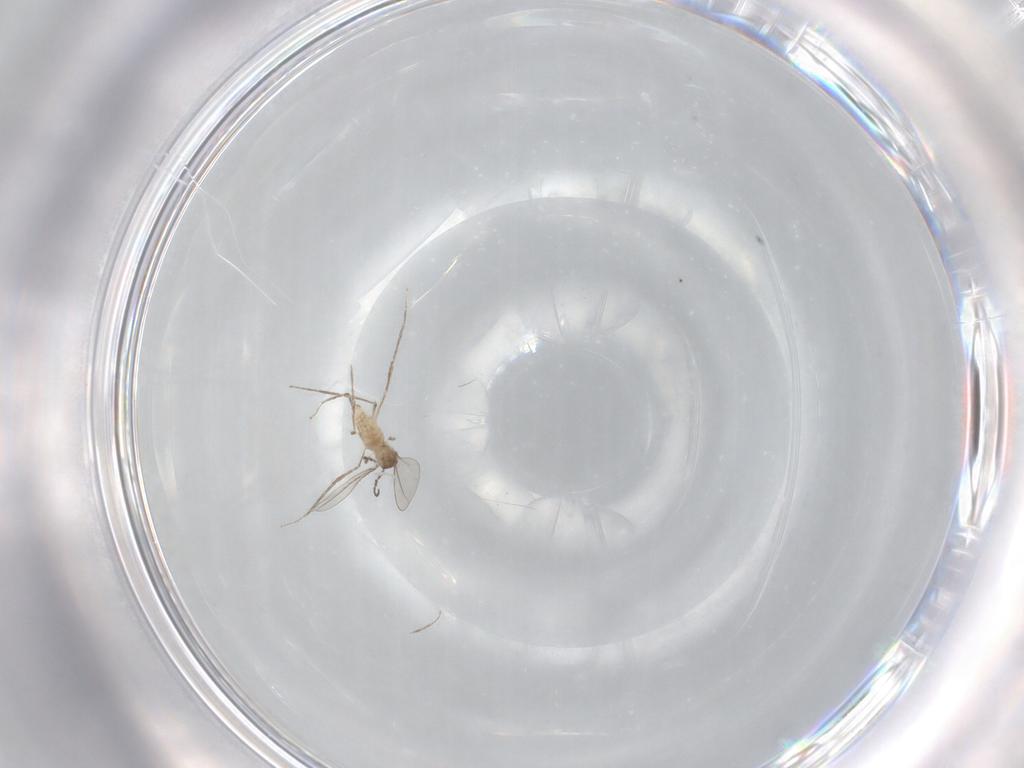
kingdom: Animalia
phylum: Arthropoda
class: Insecta
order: Diptera
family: Cecidomyiidae
